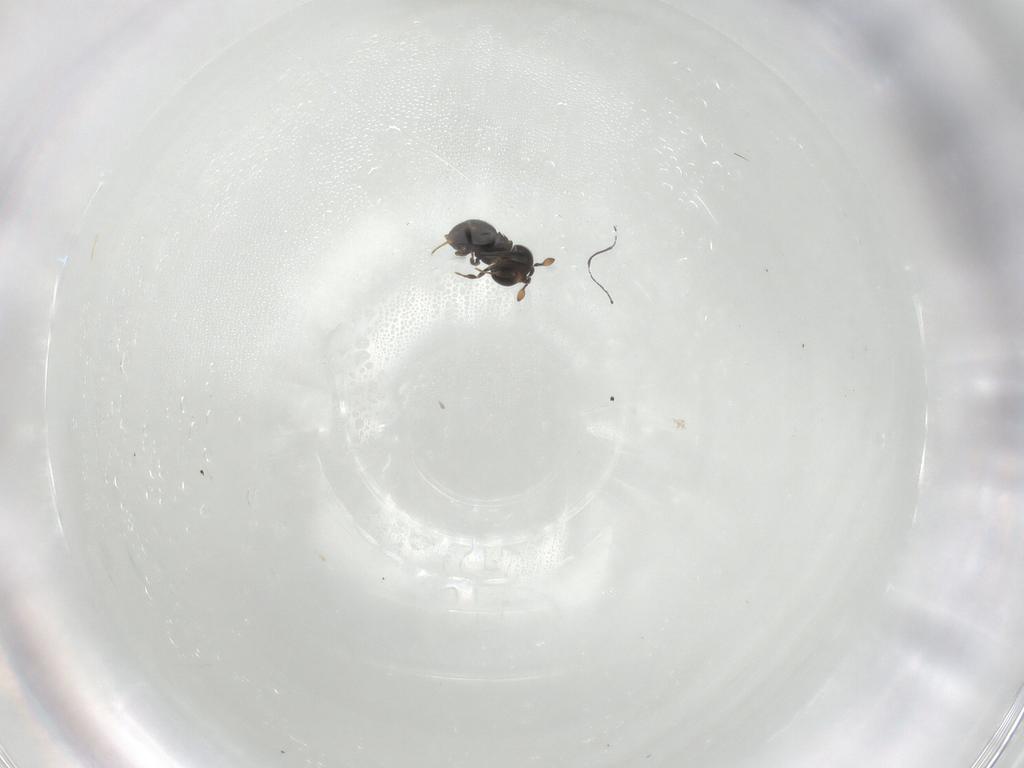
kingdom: Animalia
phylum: Arthropoda
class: Insecta
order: Hymenoptera
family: Scelionidae
